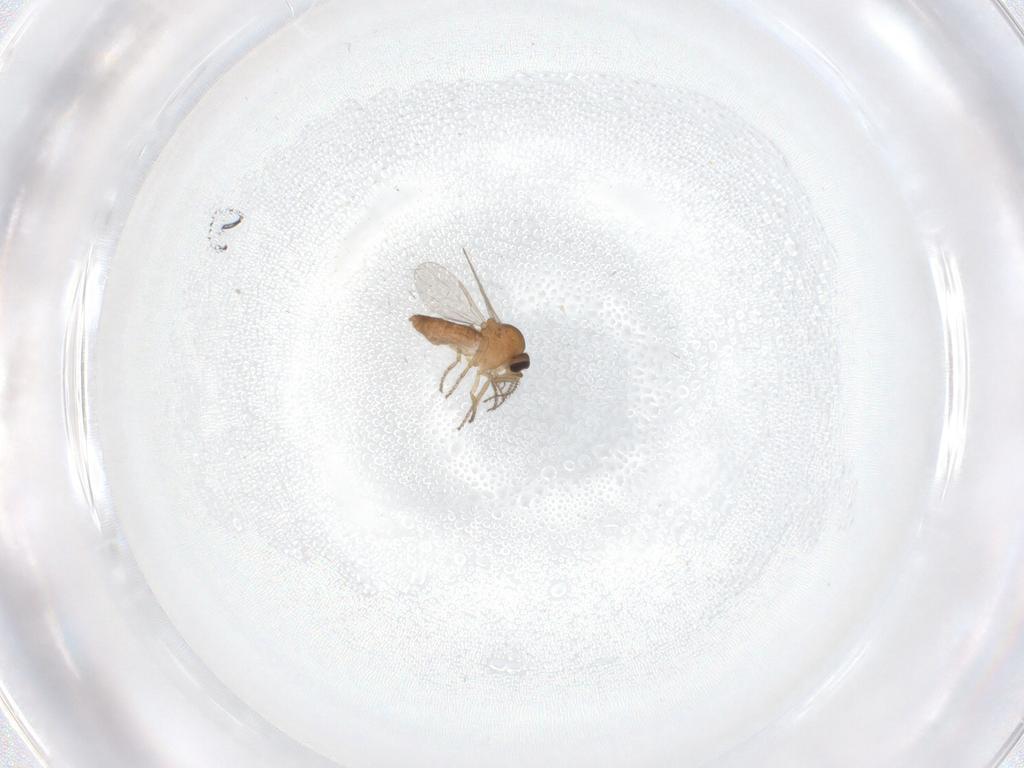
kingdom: Animalia
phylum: Arthropoda
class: Insecta
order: Diptera
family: Ceratopogonidae
